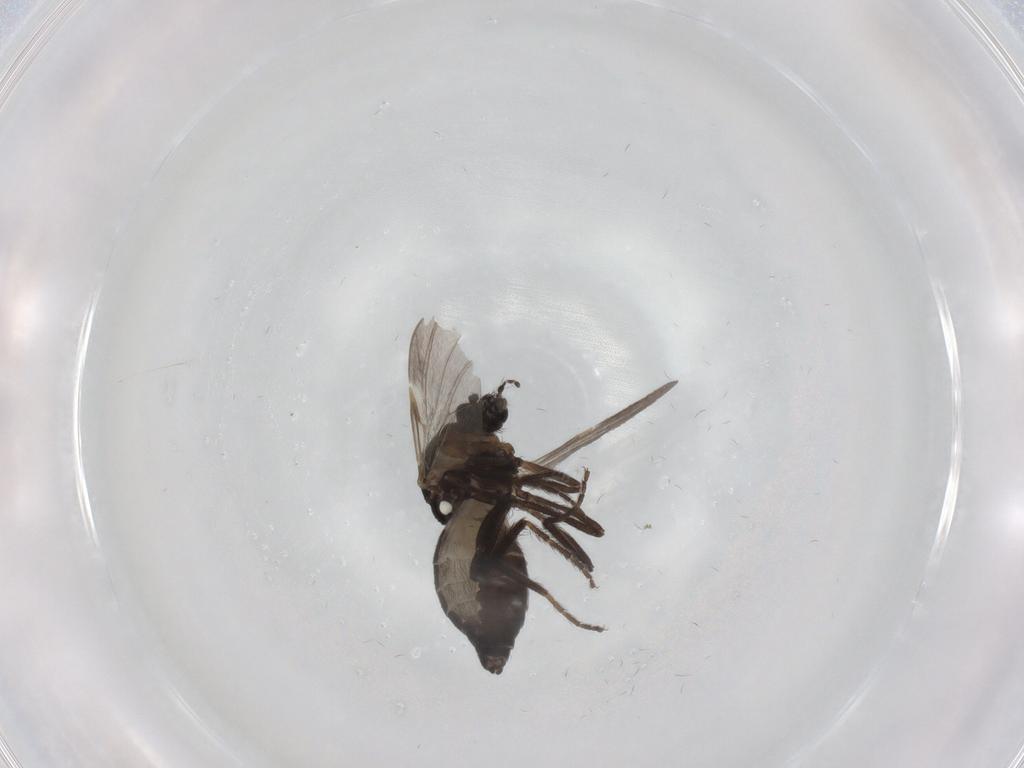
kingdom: Animalia
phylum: Arthropoda
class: Insecta
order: Diptera
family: Ceratopogonidae
